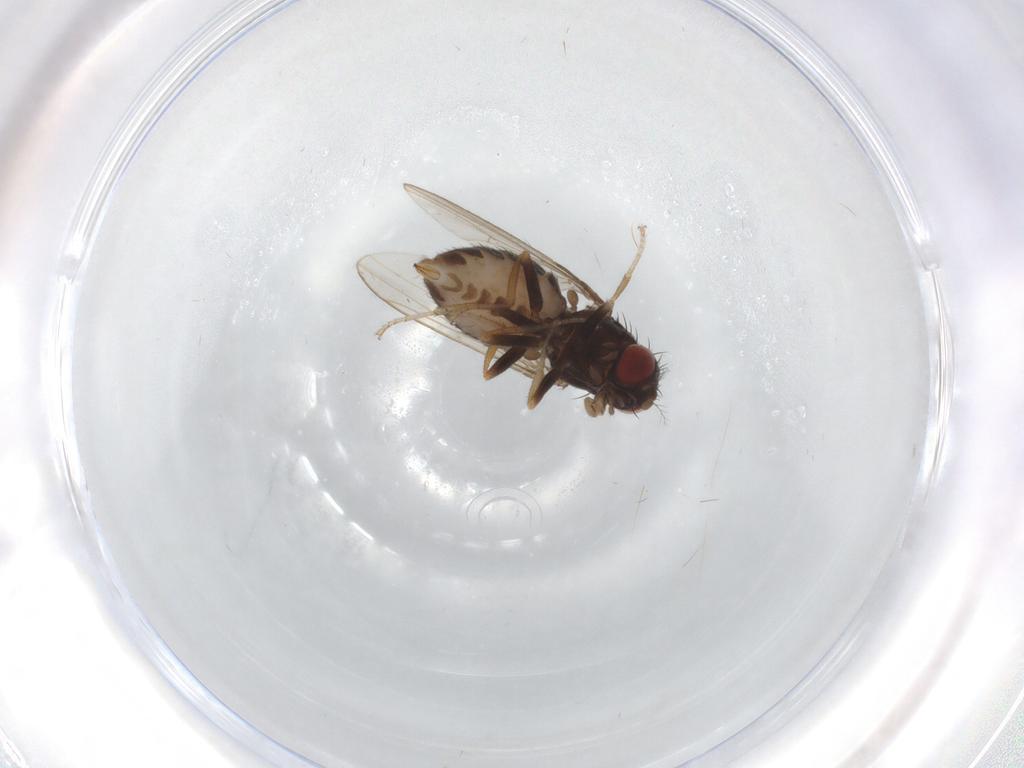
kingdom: Animalia
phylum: Arthropoda
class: Insecta
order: Diptera
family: Drosophilidae
